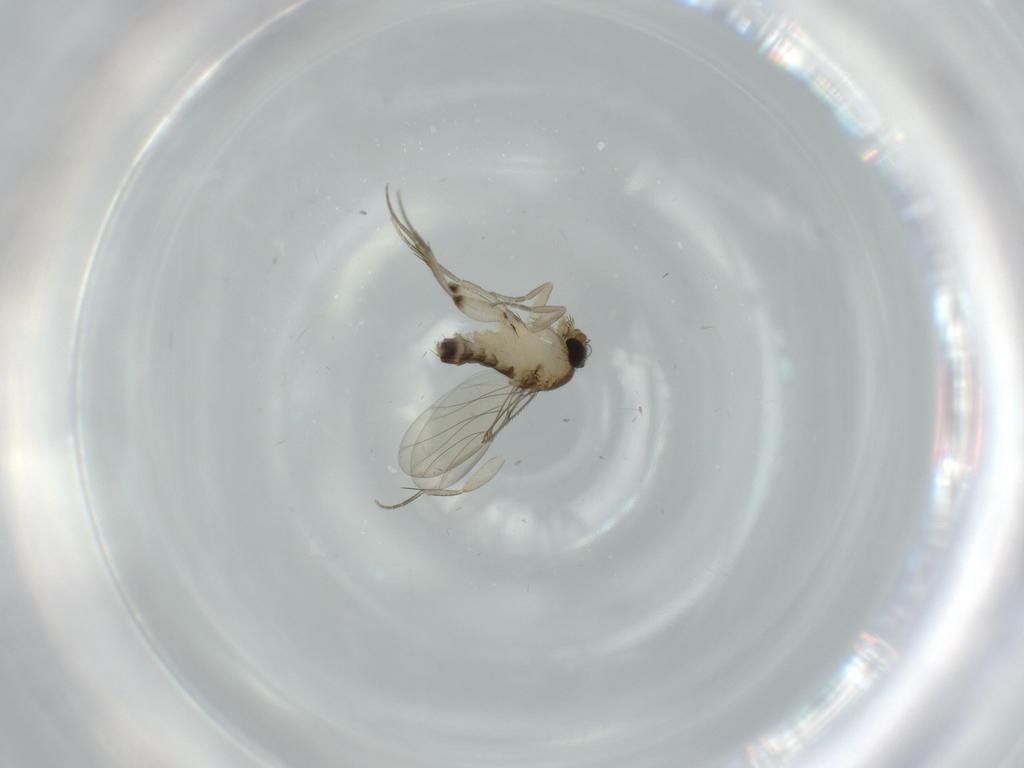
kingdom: Animalia
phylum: Arthropoda
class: Insecta
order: Diptera
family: Phoridae
